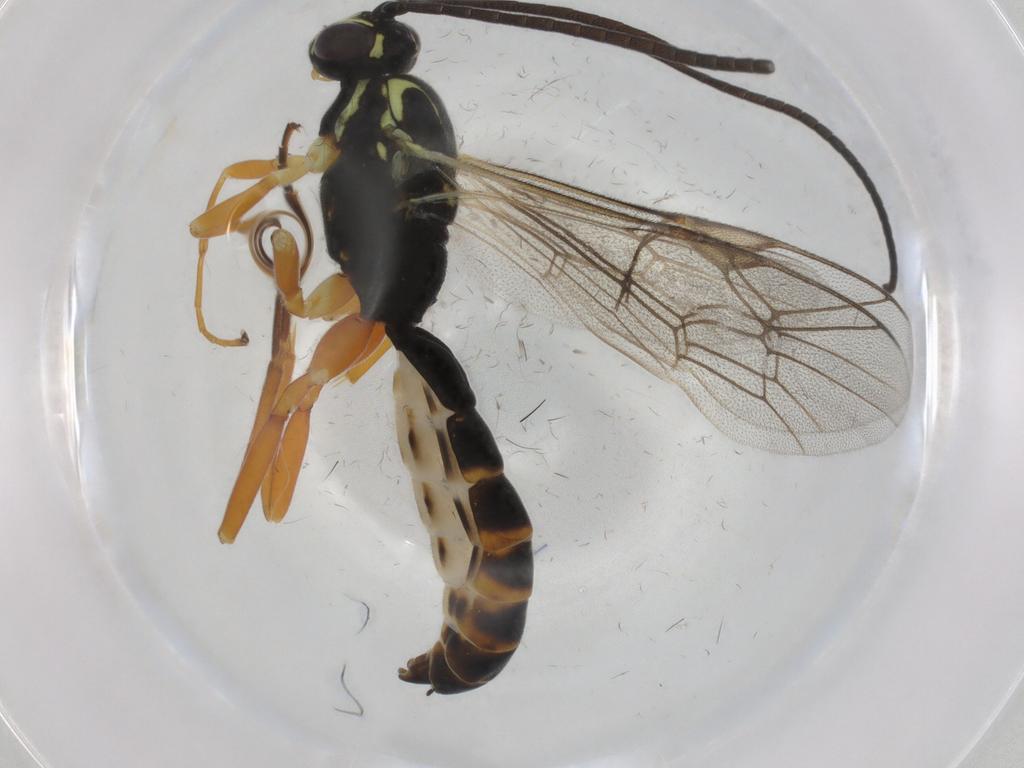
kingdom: Animalia
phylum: Arthropoda
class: Insecta
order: Hymenoptera
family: Ichneumonidae
